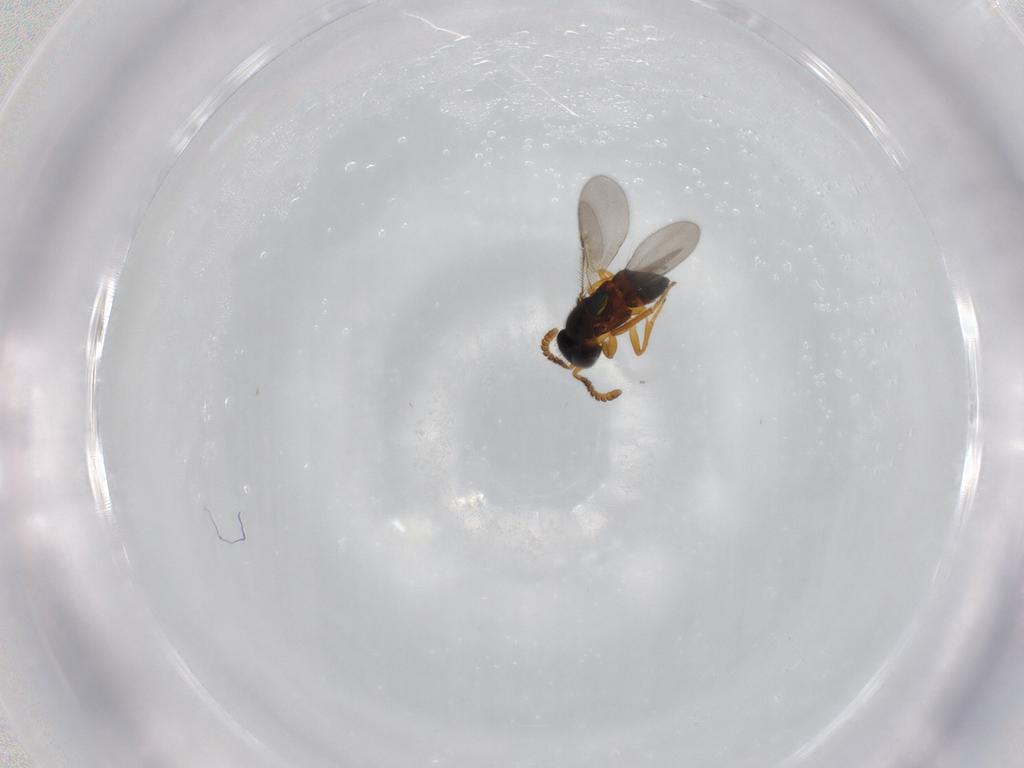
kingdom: Animalia
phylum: Arthropoda
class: Insecta
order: Hymenoptera
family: Encyrtidae
